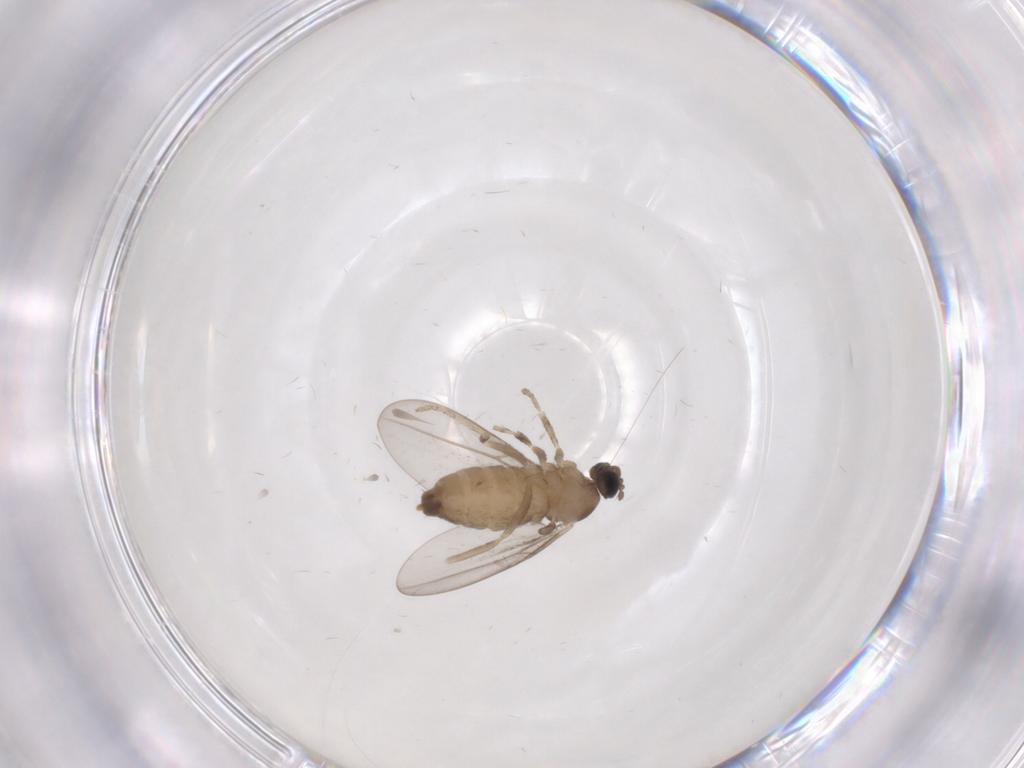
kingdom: Animalia
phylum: Arthropoda
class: Insecta
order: Diptera
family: Cecidomyiidae
